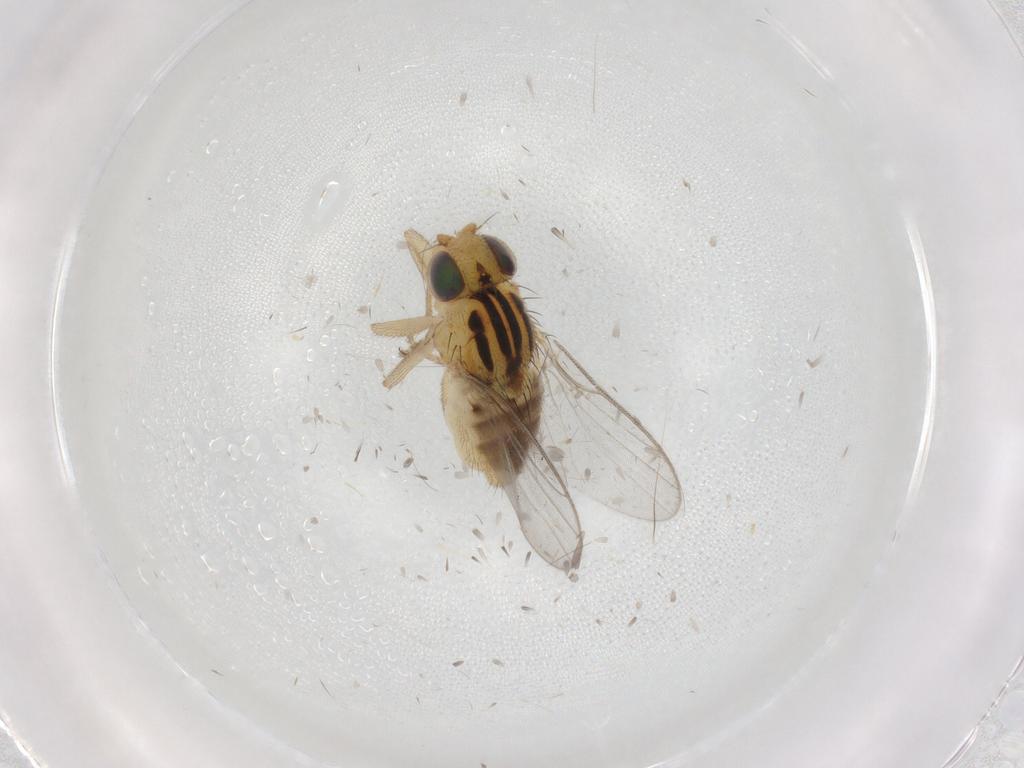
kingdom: Animalia
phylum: Arthropoda
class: Insecta
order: Diptera
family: Chloropidae
